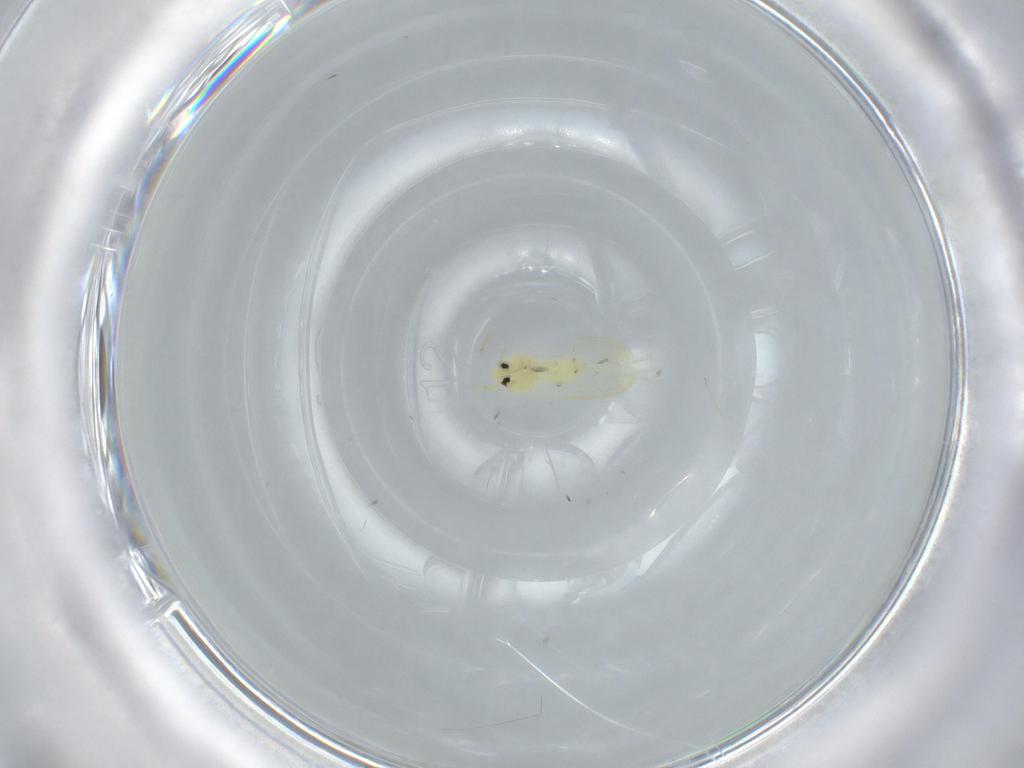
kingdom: Animalia
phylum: Arthropoda
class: Insecta
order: Hemiptera
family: Aleyrodidae
